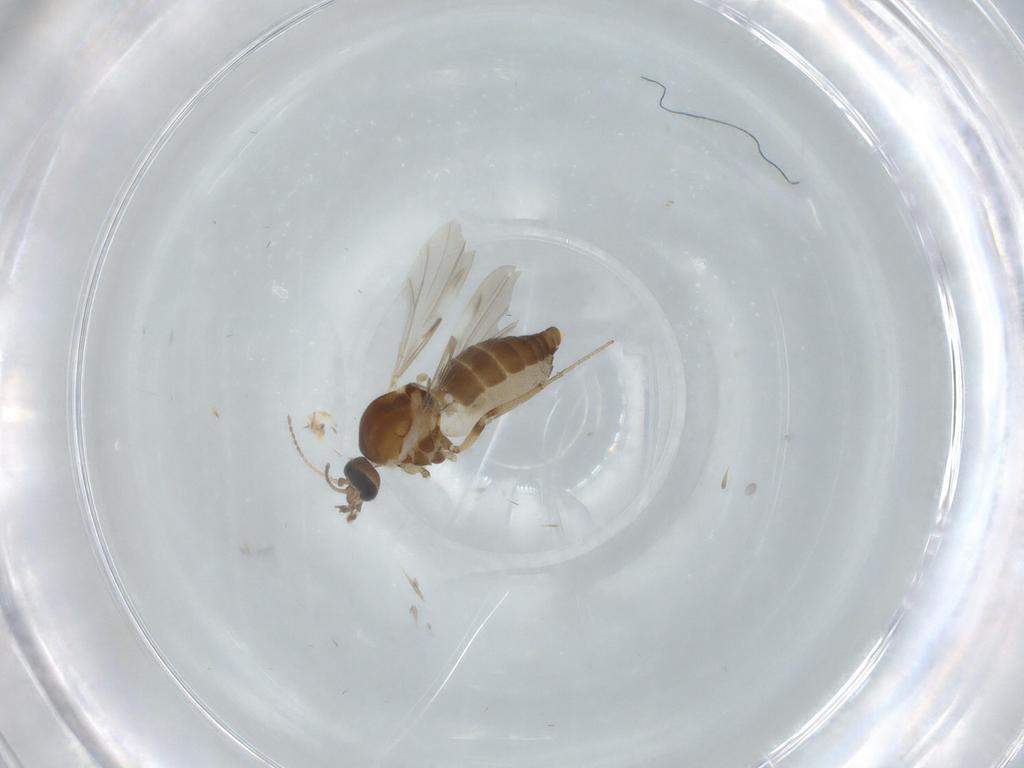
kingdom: Animalia
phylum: Arthropoda
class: Insecta
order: Diptera
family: Ceratopogonidae
